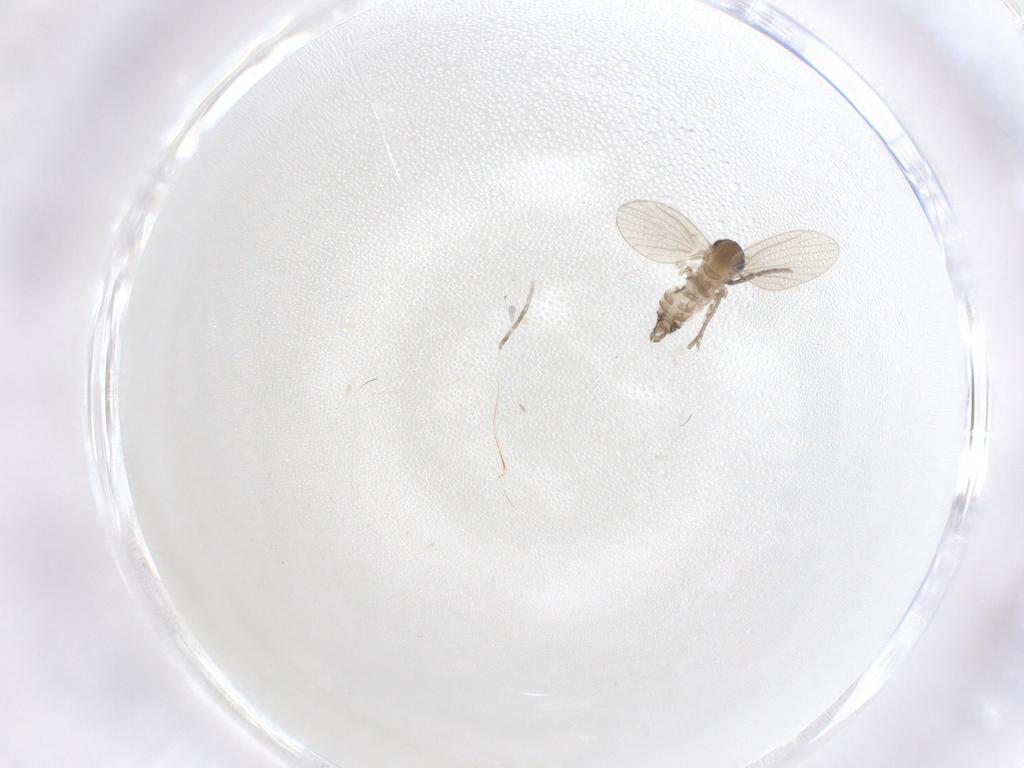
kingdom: Animalia
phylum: Arthropoda
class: Insecta
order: Diptera
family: Cecidomyiidae
